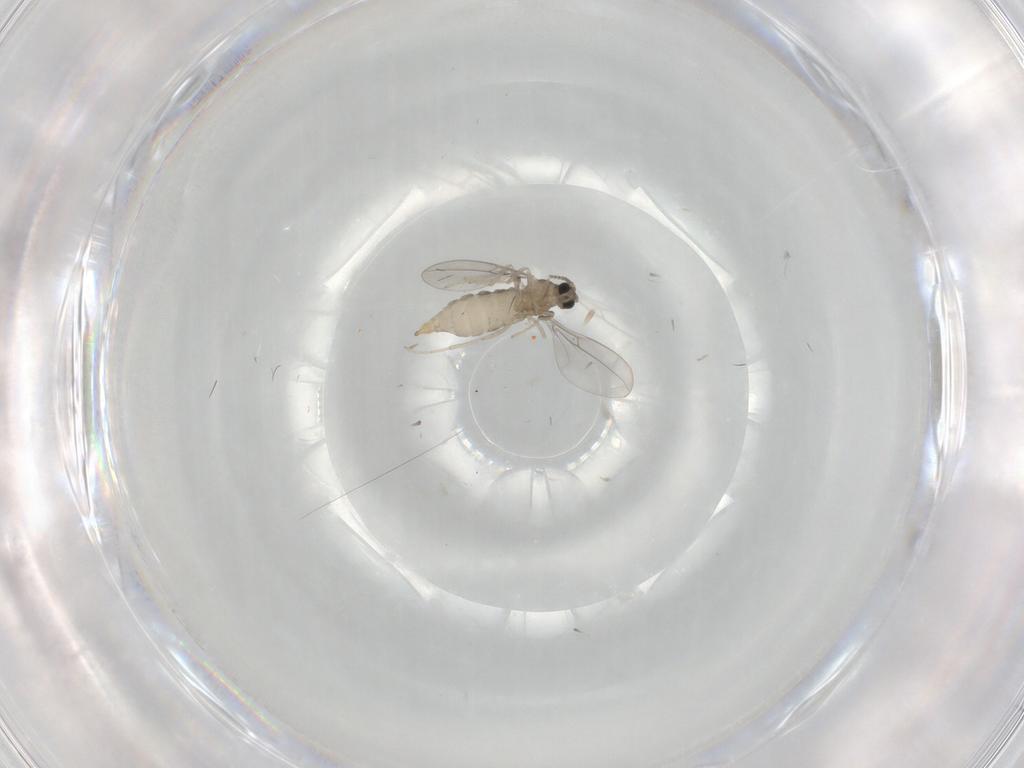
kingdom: Animalia
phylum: Arthropoda
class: Insecta
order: Diptera
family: Cecidomyiidae
